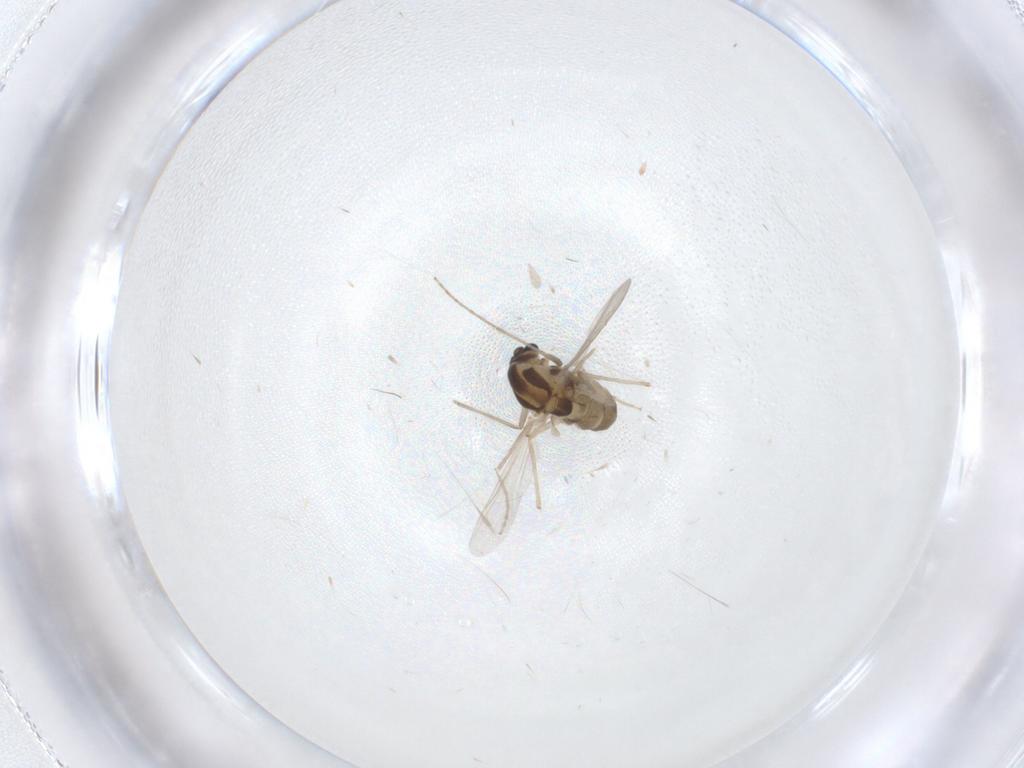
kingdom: Animalia
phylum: Arthropoda
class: Insecta
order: Diptera
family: Chironomidae
